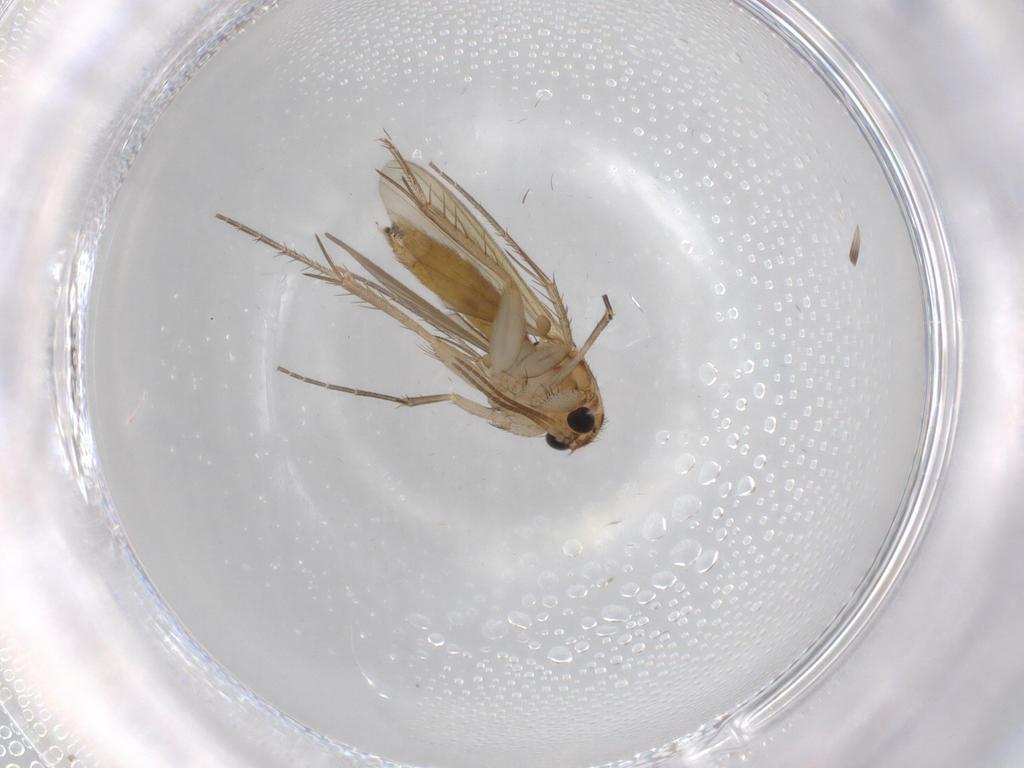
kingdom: Animalia
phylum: Arthropoda
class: Insecta
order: Diptera
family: Mycetophilidae
